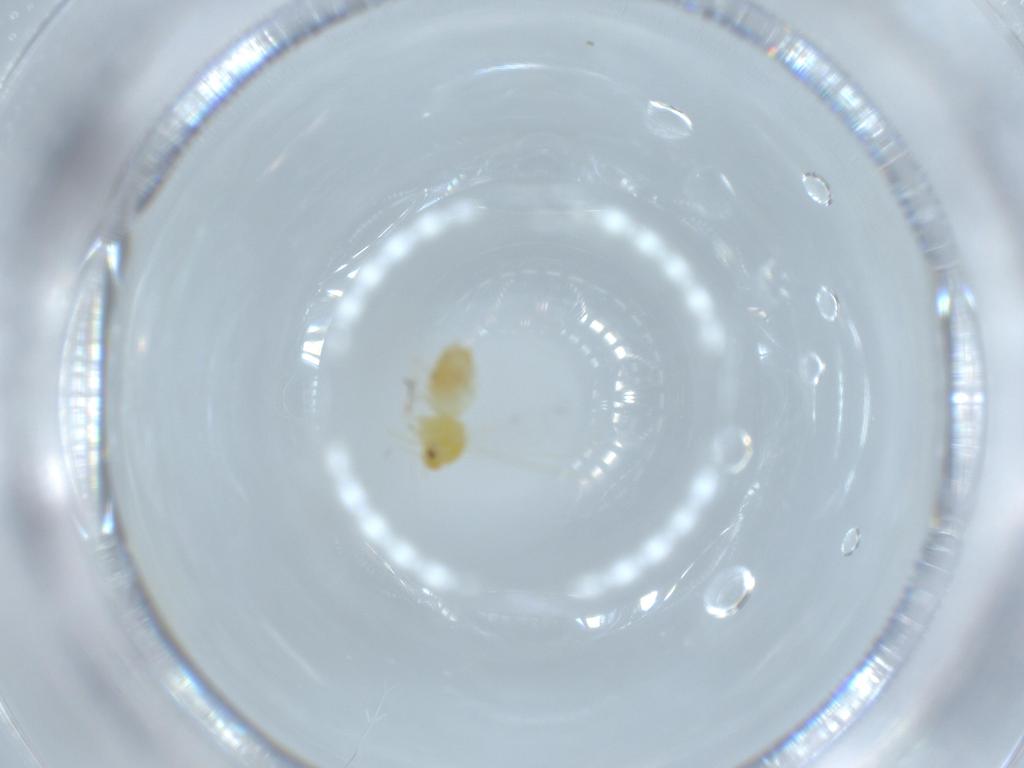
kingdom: Animalia
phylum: Arthropoda
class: Insecta
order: Hemiptera
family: Aleyrodidae
